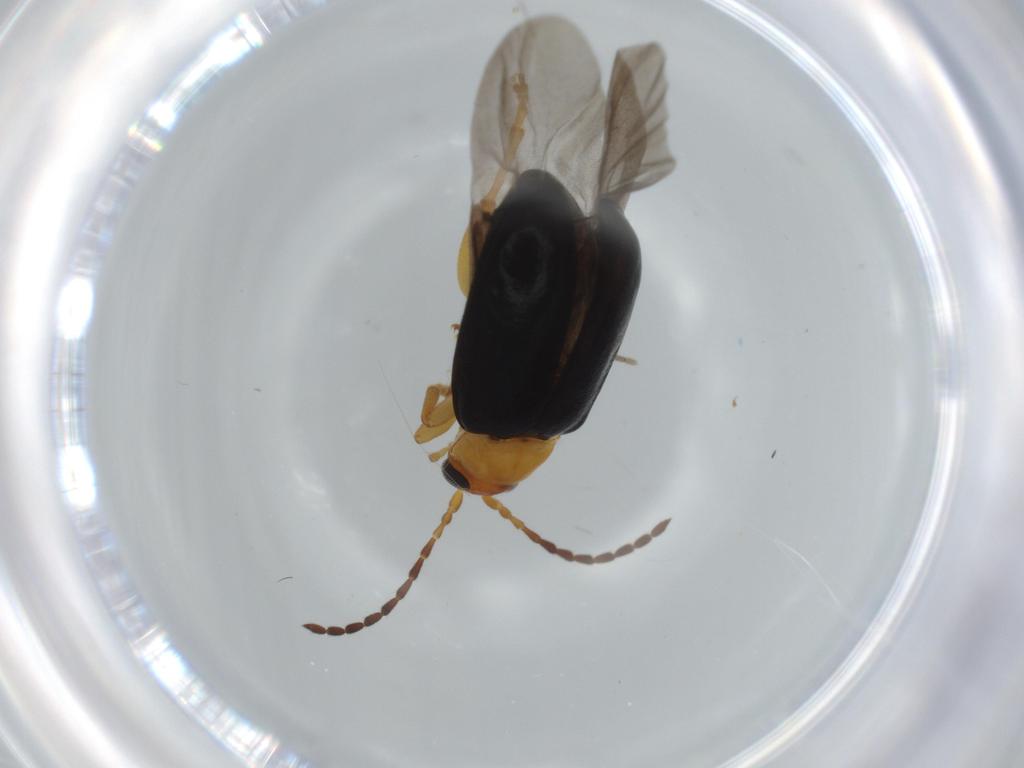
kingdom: Animalia
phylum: Arthropoda
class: Insecta
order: Coleoptera
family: Chrysomelidae
